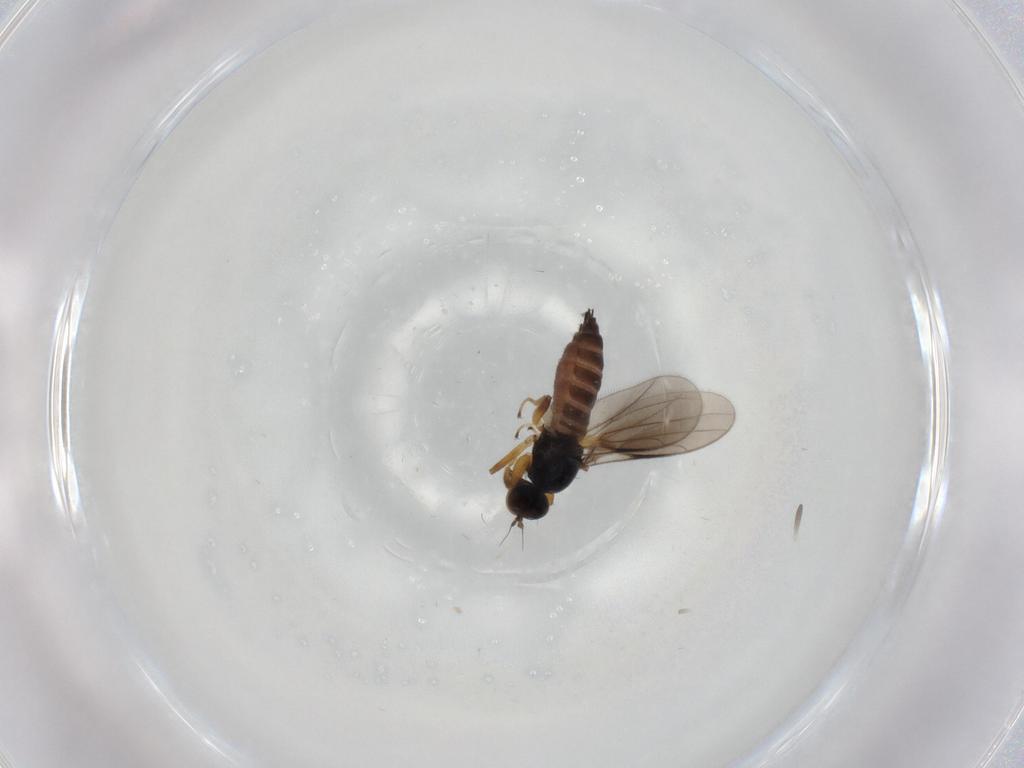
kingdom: Animalia
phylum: Arthropoda
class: Insecta
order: Diptera
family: Hybotidae
